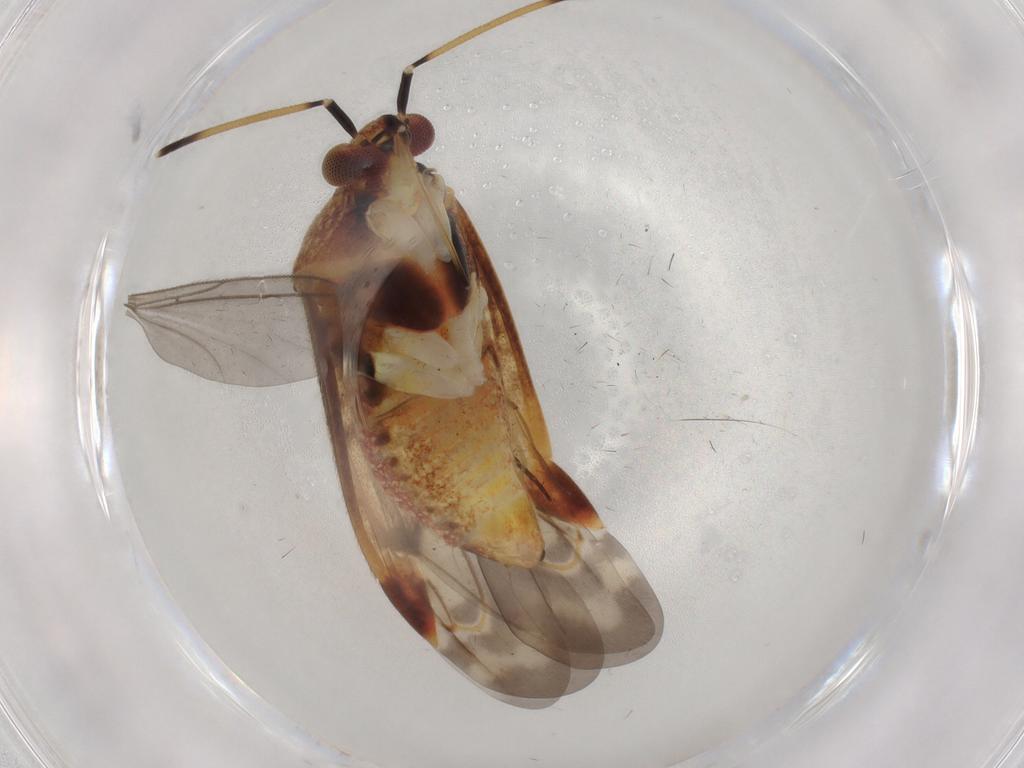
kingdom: Animalia
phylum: Arthropoda
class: Insecta
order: Hemiptera
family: Miridae
